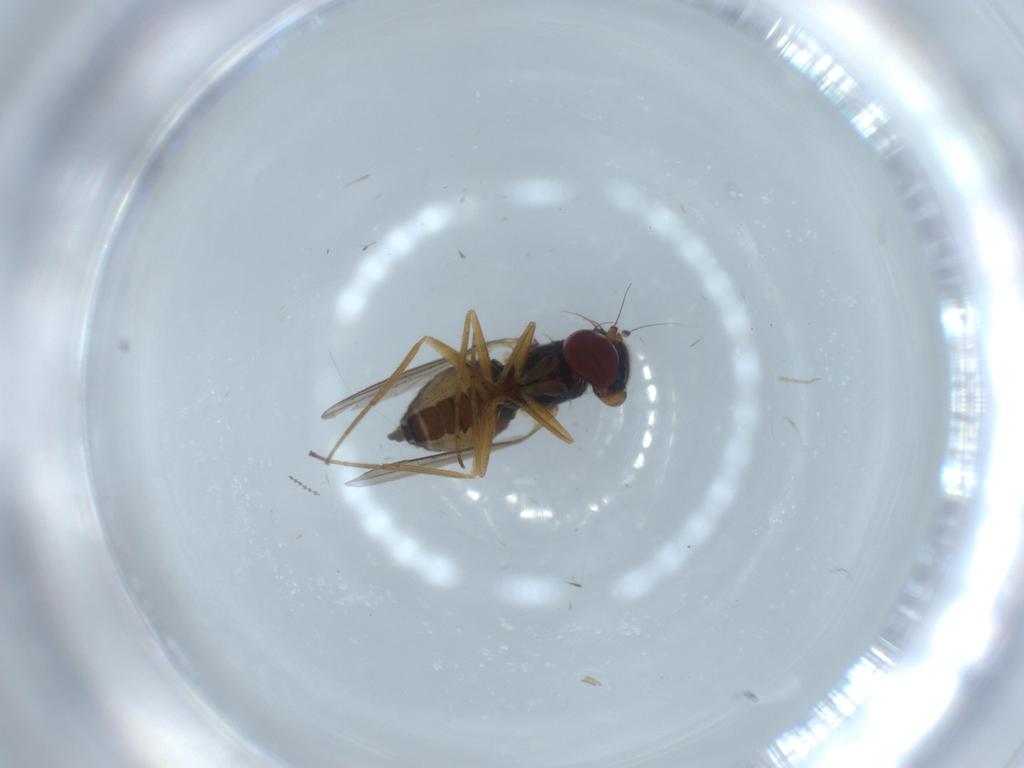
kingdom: Animalia
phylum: Arthropoda
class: Insecta
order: Diptera
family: Dolichopodidae
